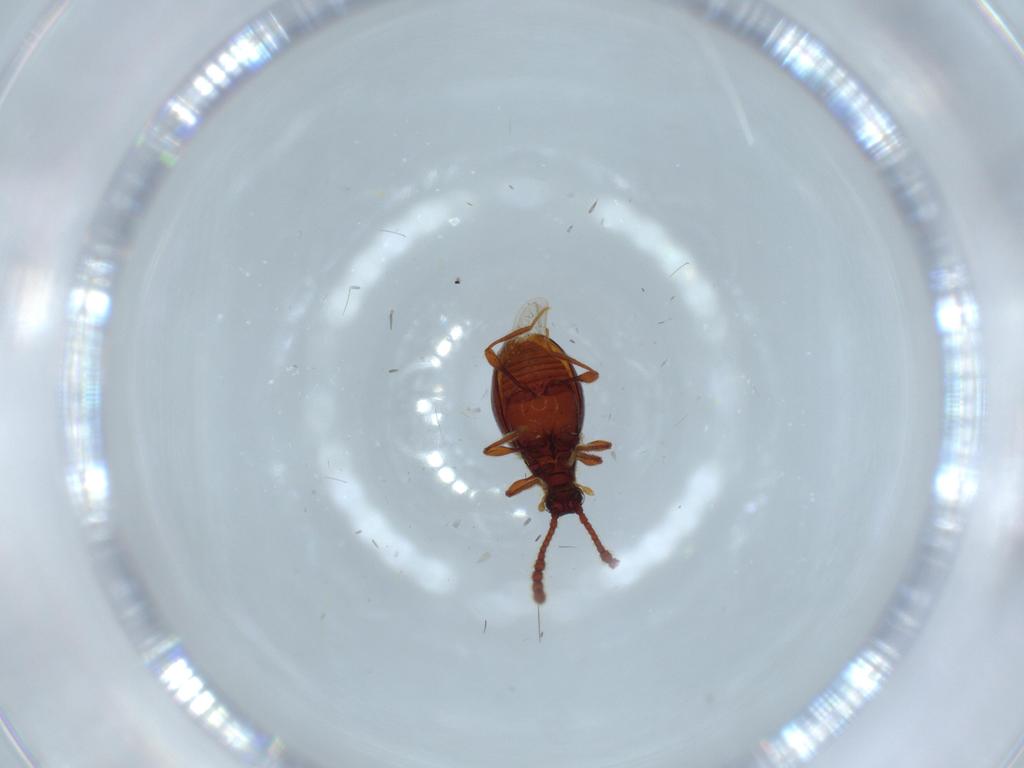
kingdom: Animalia
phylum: Arthropoda
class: Insecta
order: Coleoptera
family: Staphylinidae
